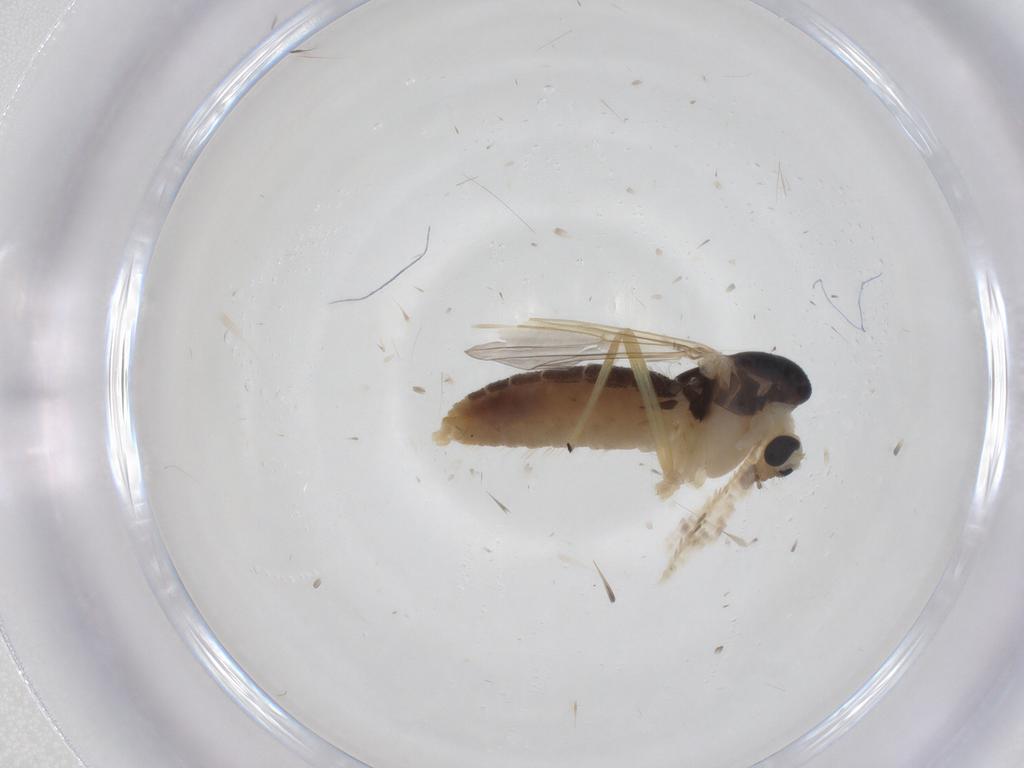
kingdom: Animalia
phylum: Arthropoda
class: Insecta
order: Diptera
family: Chironomidae
